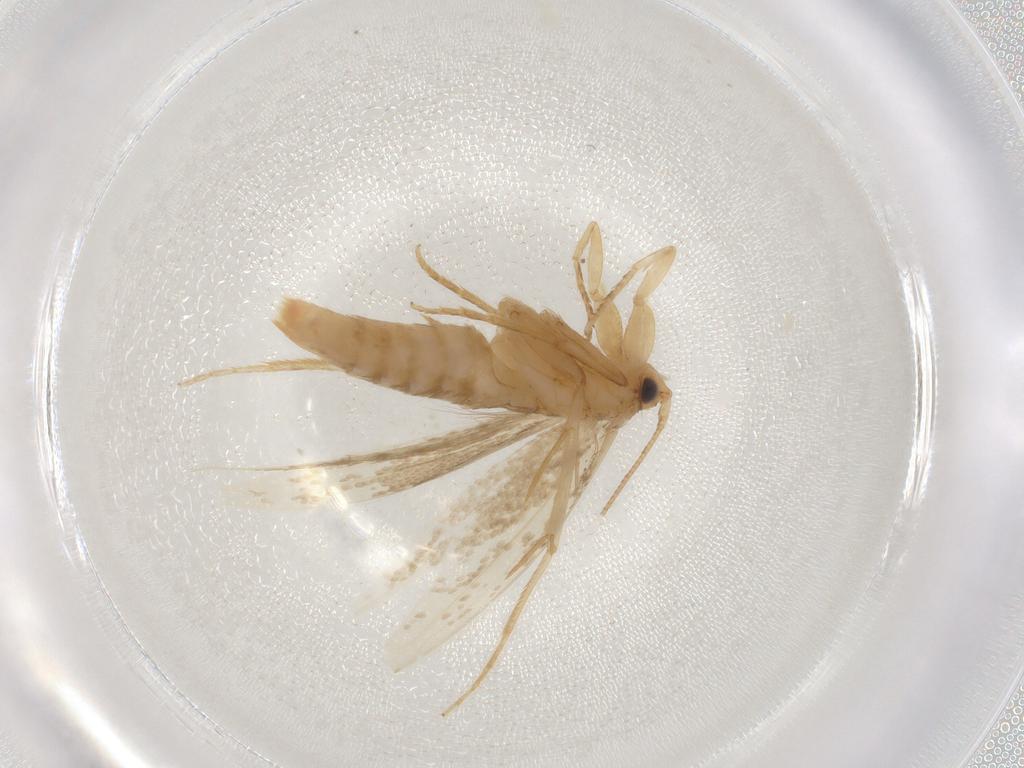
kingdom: Animalia
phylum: Arthropoda
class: Insecta
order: Lepidoptera
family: Tineidae
